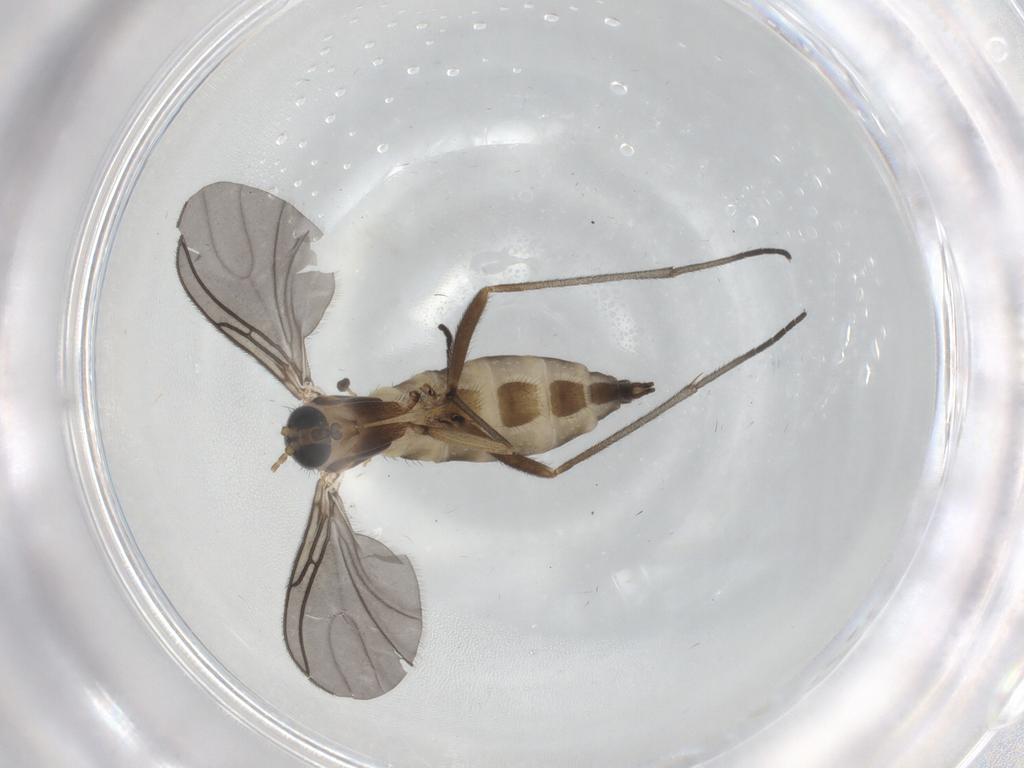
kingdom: Animalia
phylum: Arthropoda
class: Insecta
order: Diptera
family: Sciaridae
